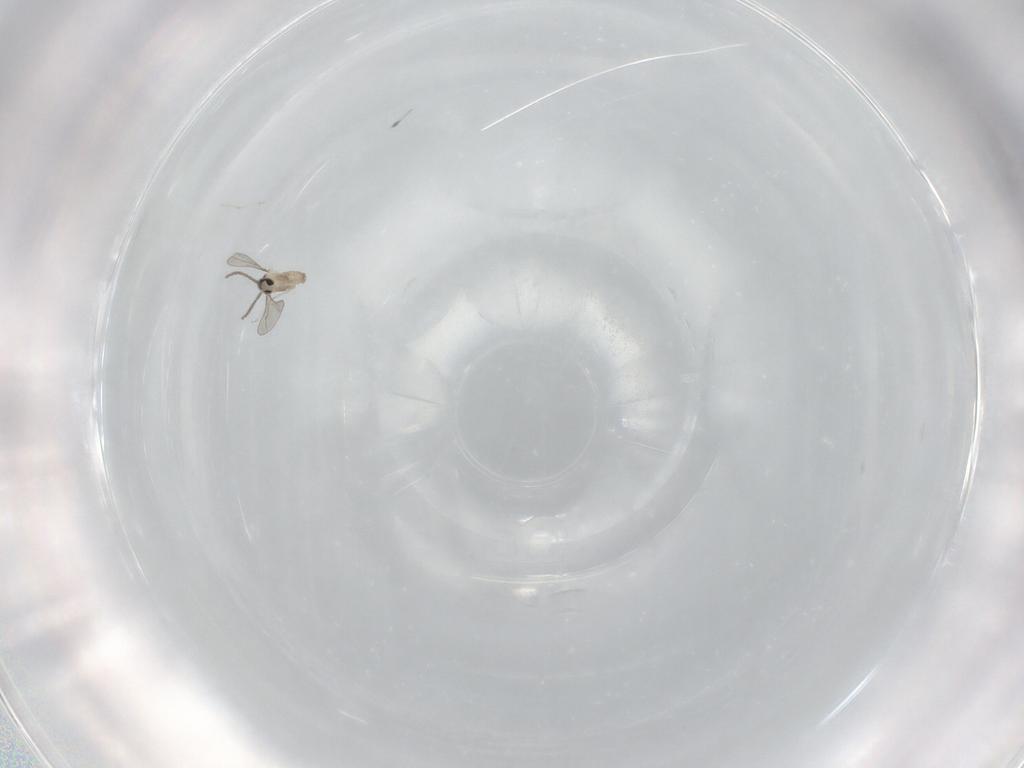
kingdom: Animalia
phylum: Arthropoda
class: Insecta
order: Diptera
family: Cecidomyiidae
